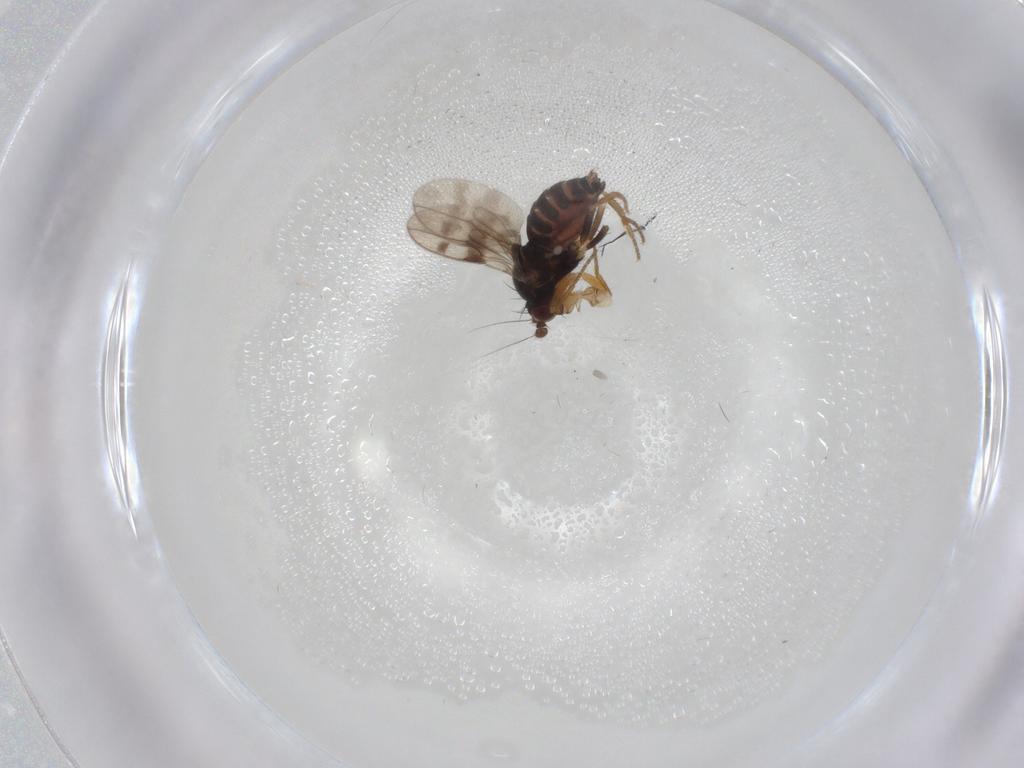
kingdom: Animalia
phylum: Arthropoda
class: Insecta
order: Diptera
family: Sphaeroceridae
